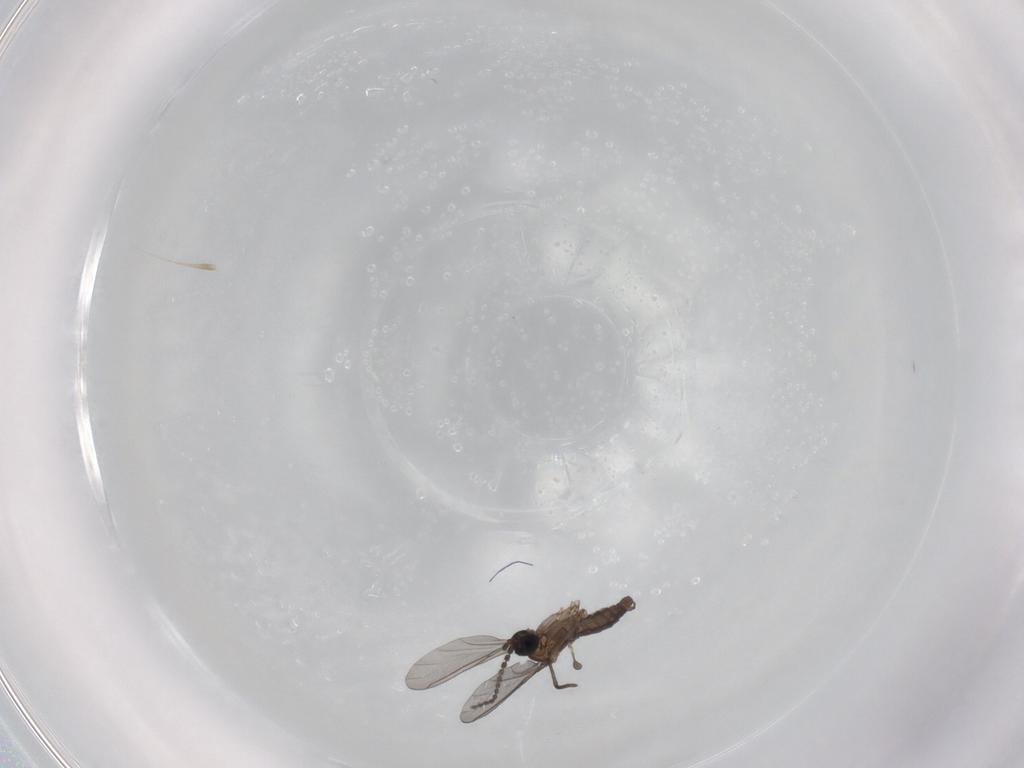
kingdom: Animalia
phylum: Arthropoda
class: Insecta
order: Diptera
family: Sciaridae
